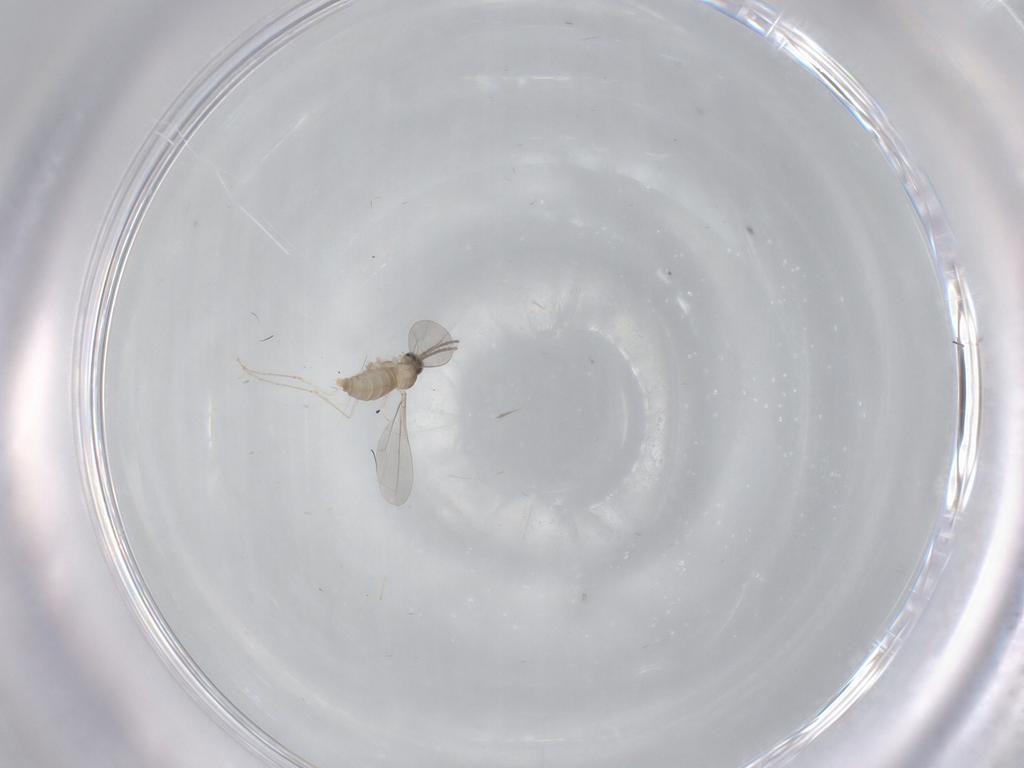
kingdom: Animalia
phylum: Arthropoda
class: Insecta
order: Diptera
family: Cecidomyiidae
